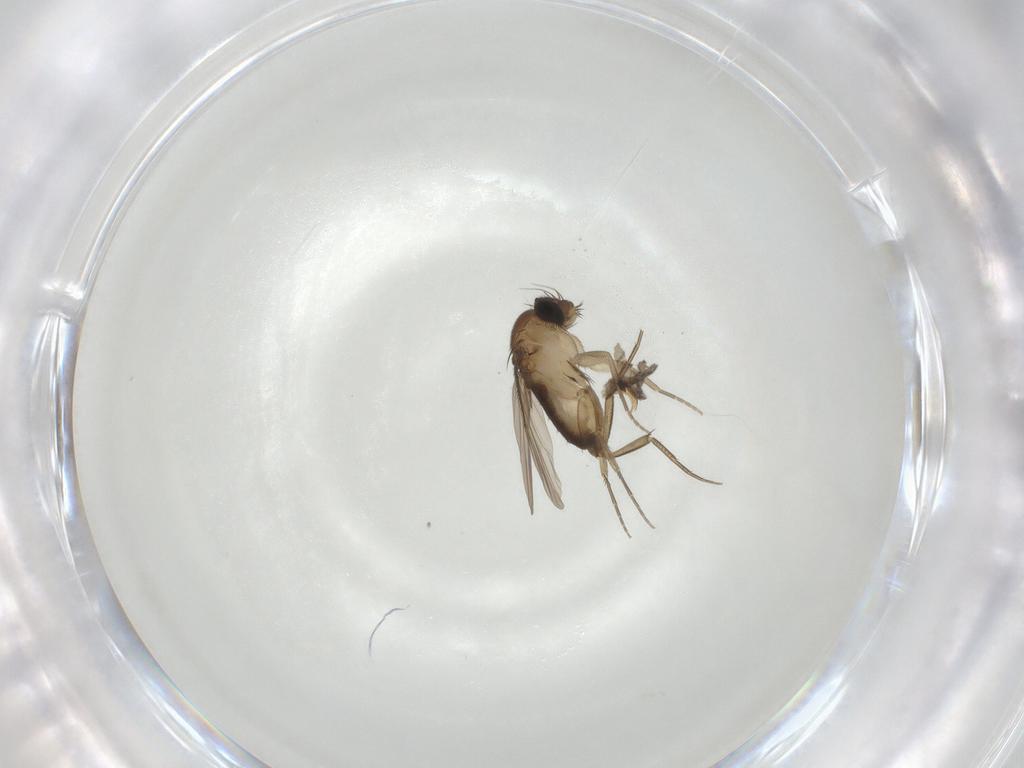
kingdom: Animalia
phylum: Arthropoda
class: Insecta
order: Diptera
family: Phoridae
